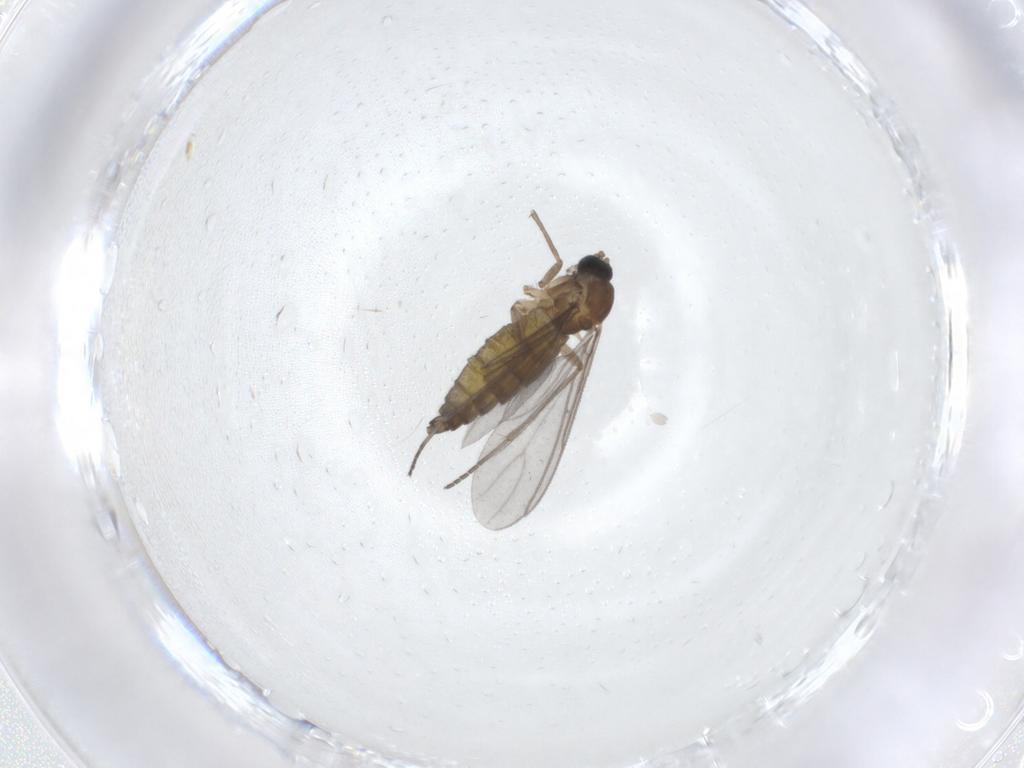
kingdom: Animalia
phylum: Arthropoda
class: Insecta
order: Diptera
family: Sciaridae
